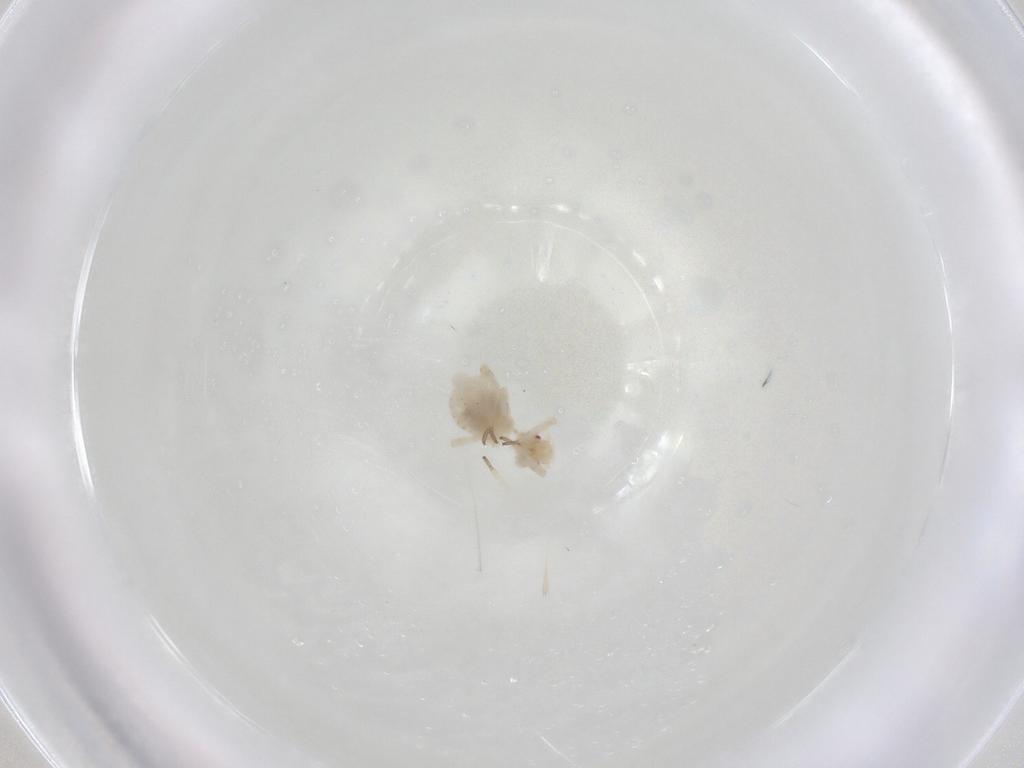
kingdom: Animalia
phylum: Arthropoda
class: Insecta
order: Hemiptera
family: Aphididae
